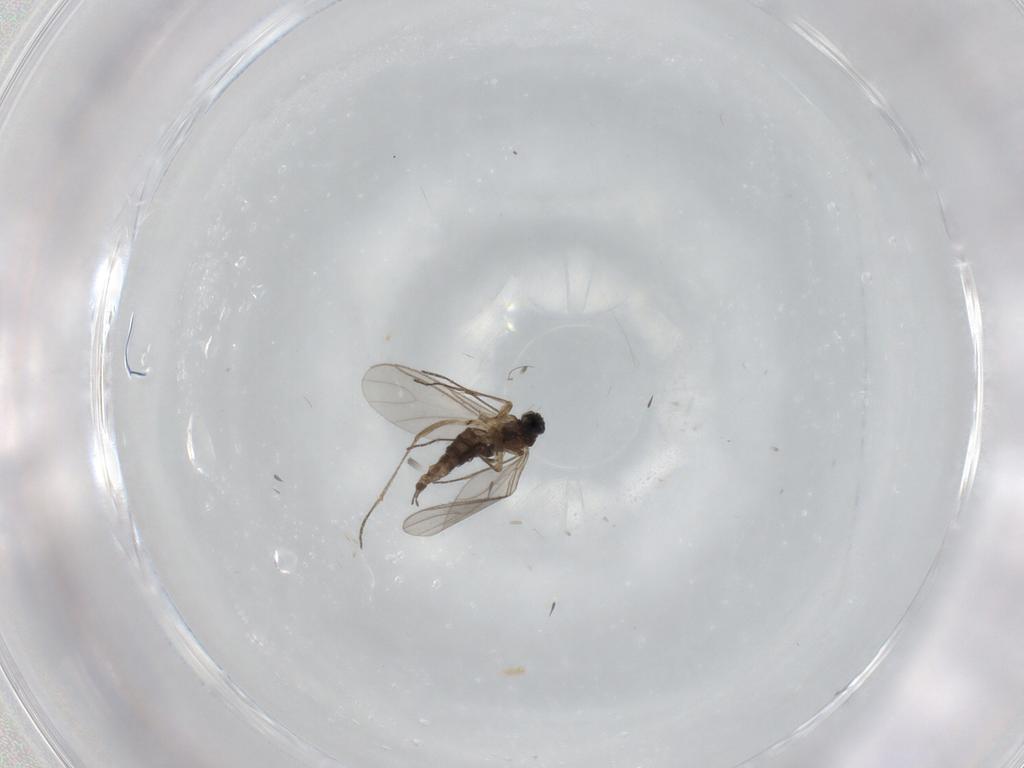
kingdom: Animalia
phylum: Arthropoda
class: Insecta
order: Diptera
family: Sciaridae
